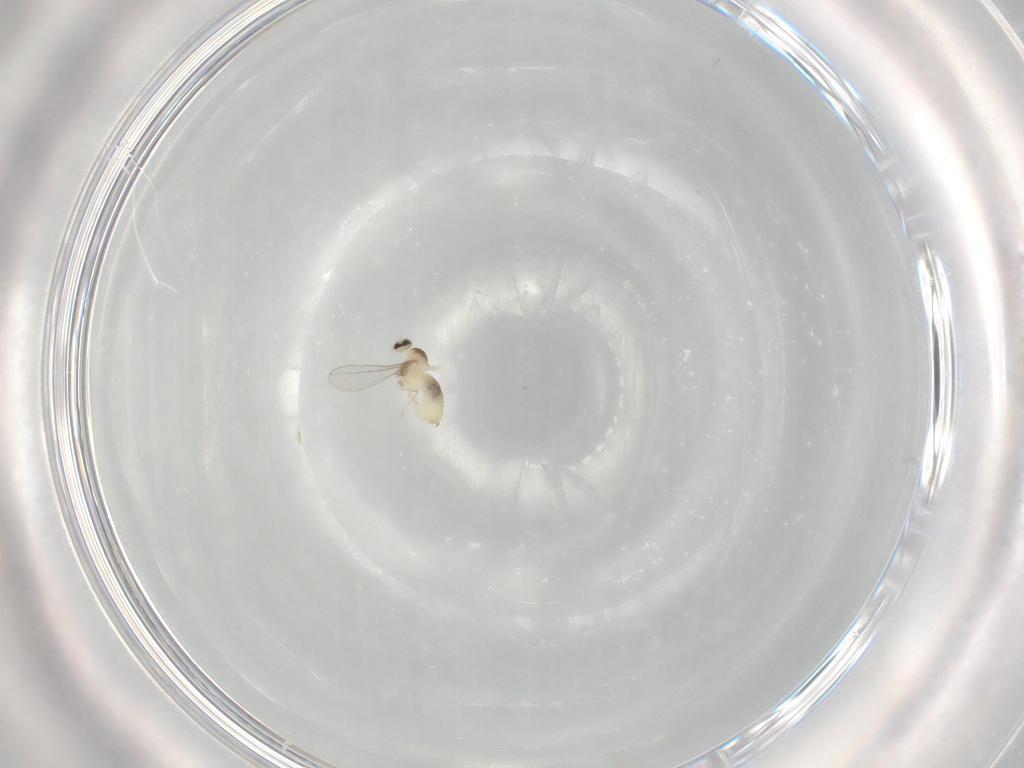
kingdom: Animalia
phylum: Arthropoda
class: Insecta
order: Diptera
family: Cecidomyiidae
